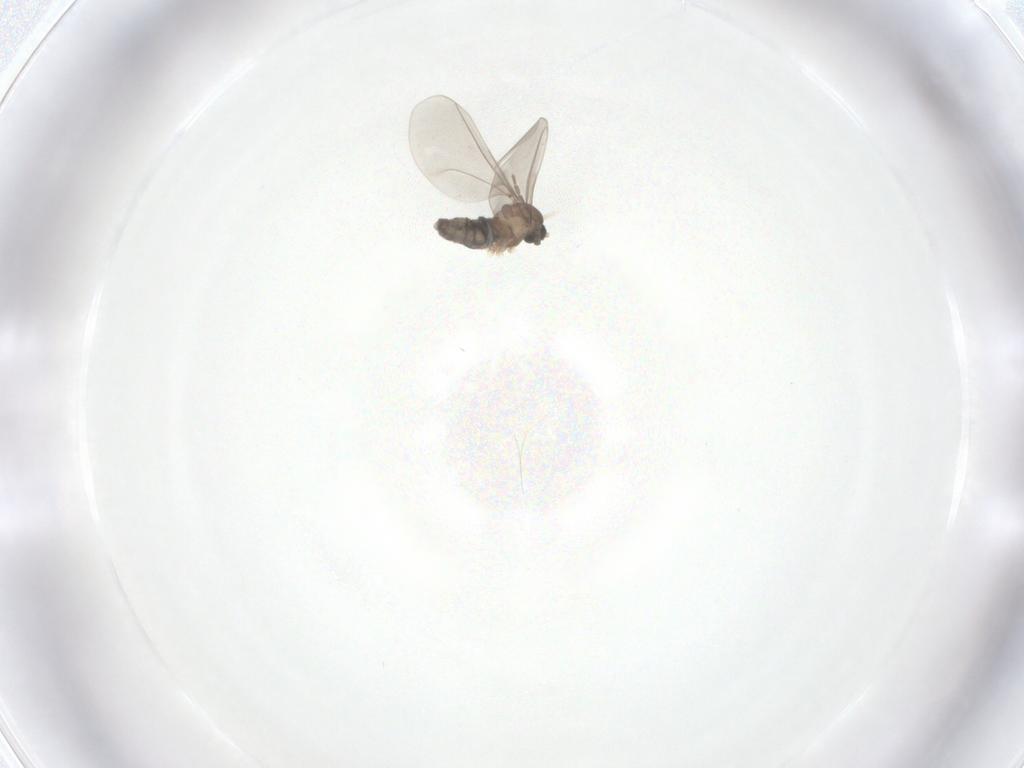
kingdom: Animalia
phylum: Arthropoda
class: Insecta
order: Diptera
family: Cecidomyiidae
